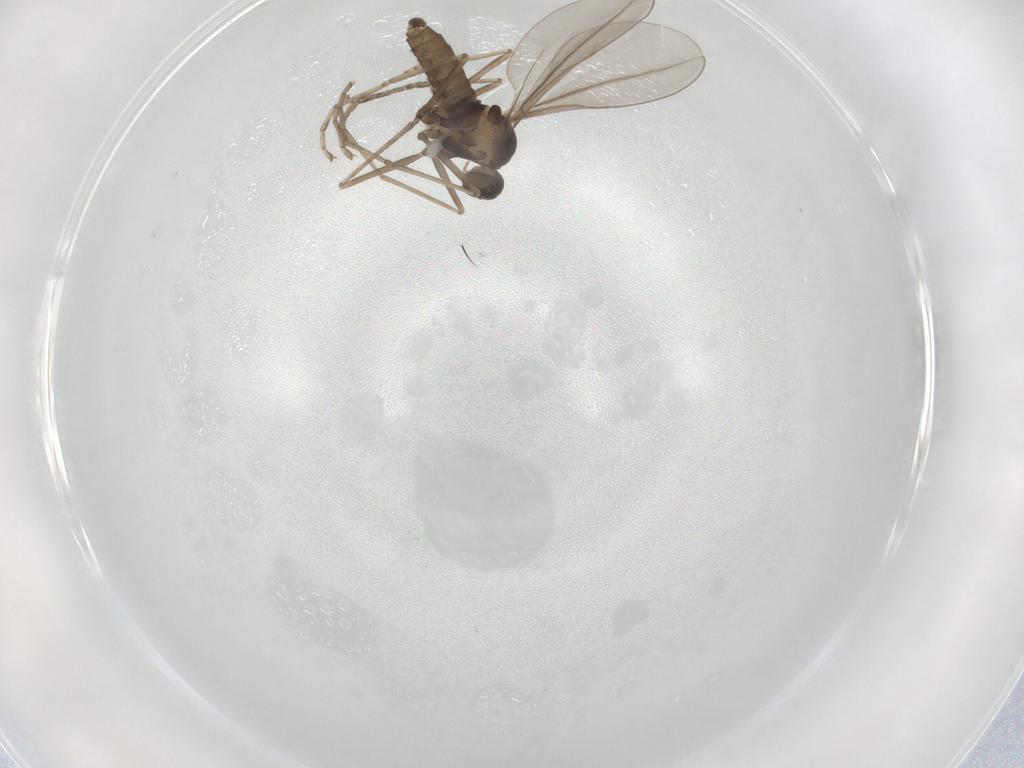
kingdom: Animalia
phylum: Arthropoda
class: Insecta
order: Diptera
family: Cecidomyiidae
